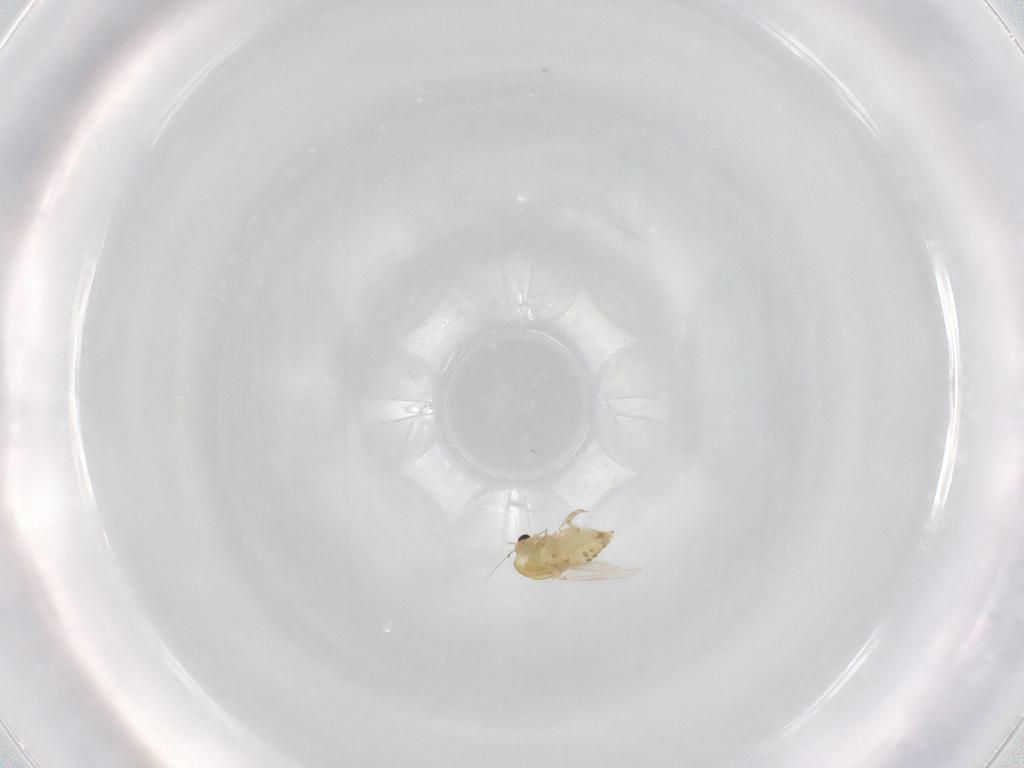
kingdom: Animalia
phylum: Arthropoda
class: Insecta
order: Diptera
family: Chironomidae
